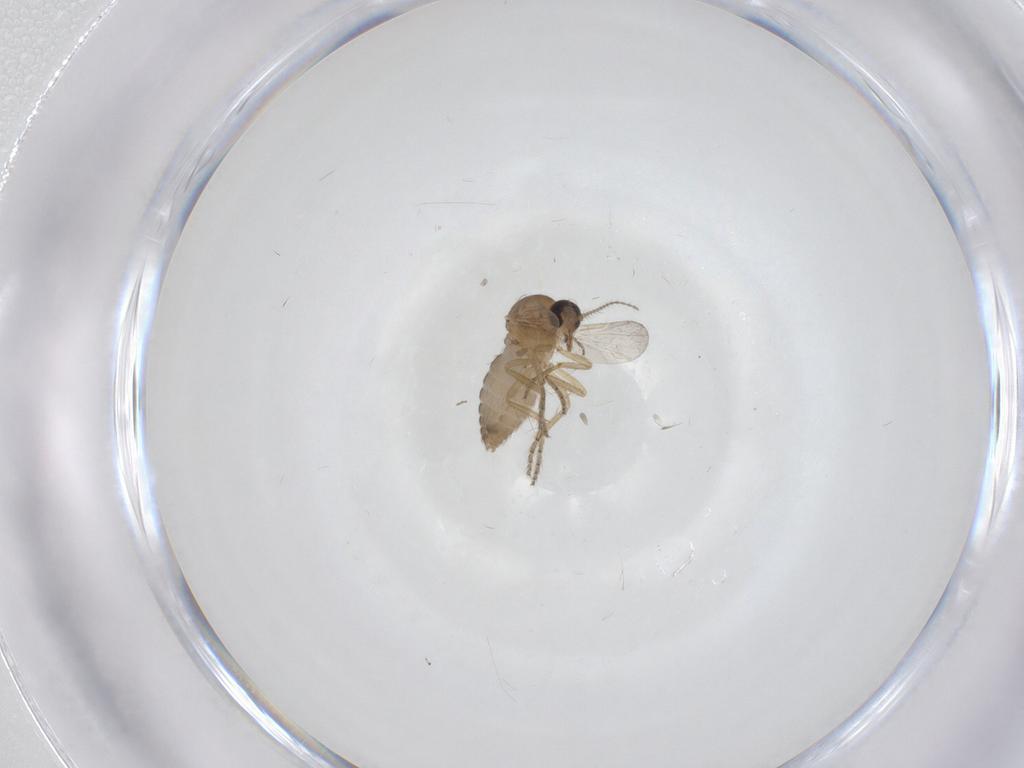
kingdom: Animalia
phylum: Arthropoda
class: Insecta
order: Diptera
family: Ceratopogonidae
